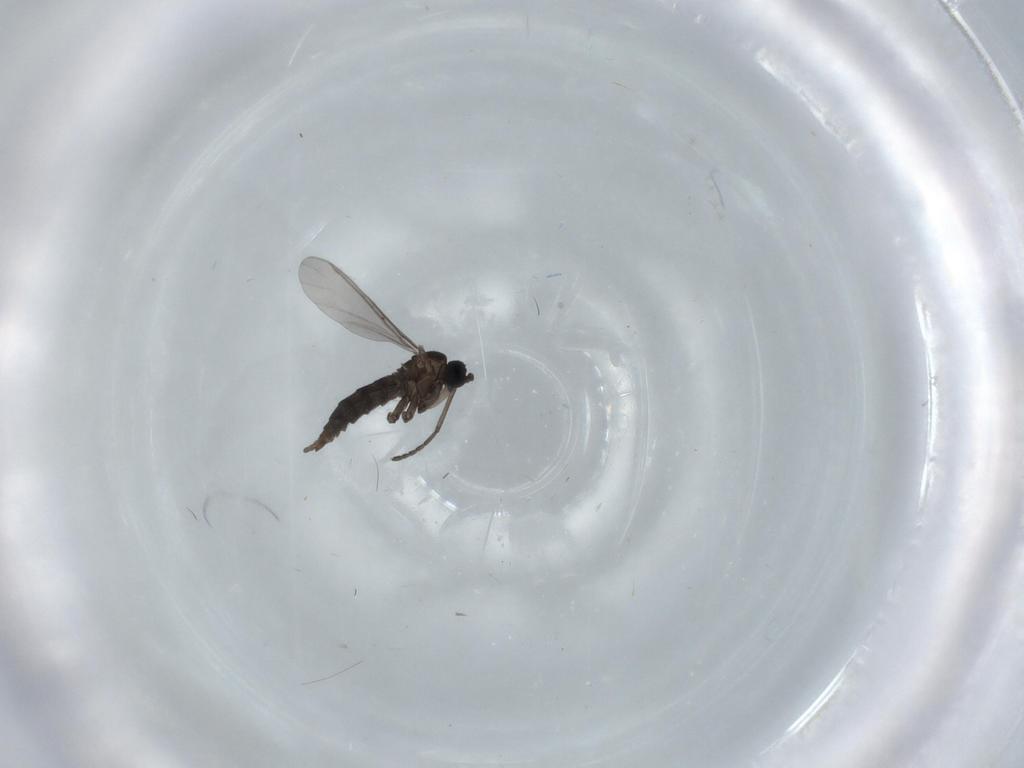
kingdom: Animalia
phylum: Arthropoda
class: Insecta
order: Diptera
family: Sciaridae
